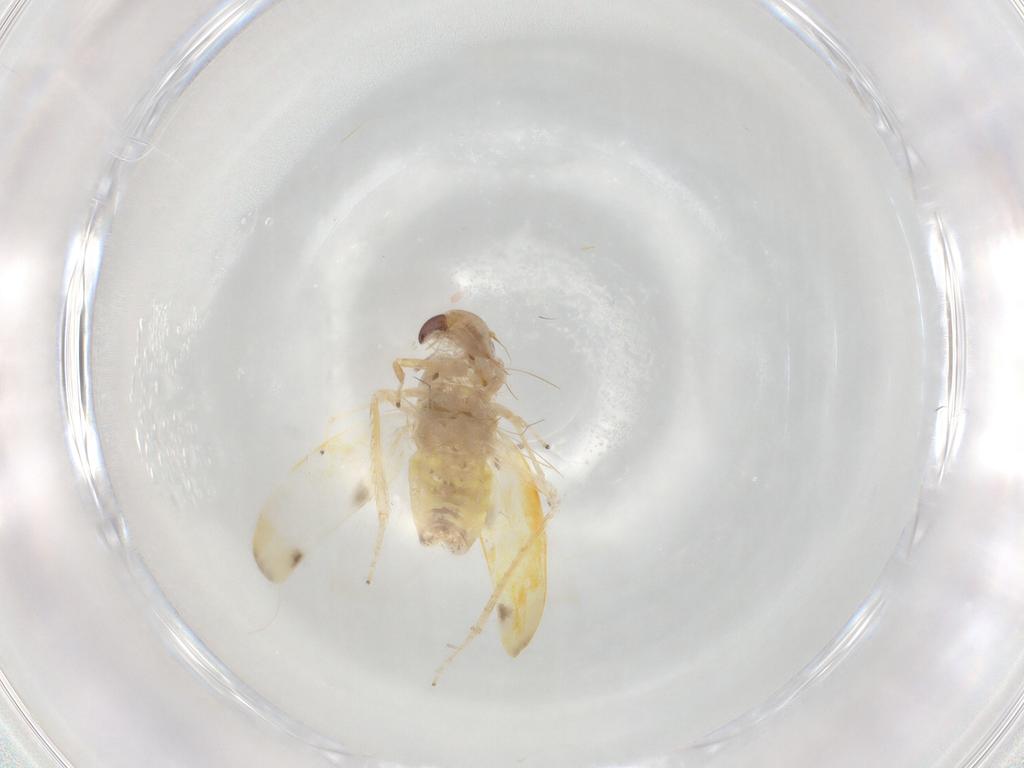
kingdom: Animalia
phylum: Arthropoda
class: Insecta
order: Hemiptera
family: Cicadellidae
